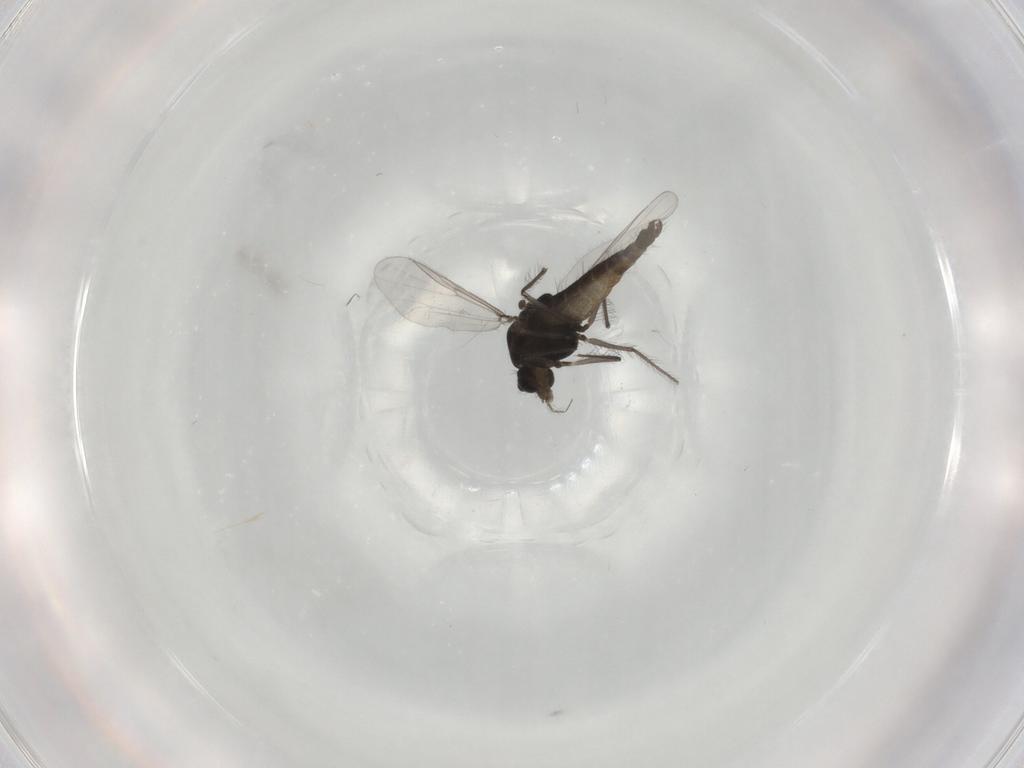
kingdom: Animalia
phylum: Arthropoda
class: Insecta
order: Diptera
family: Chironomidae
